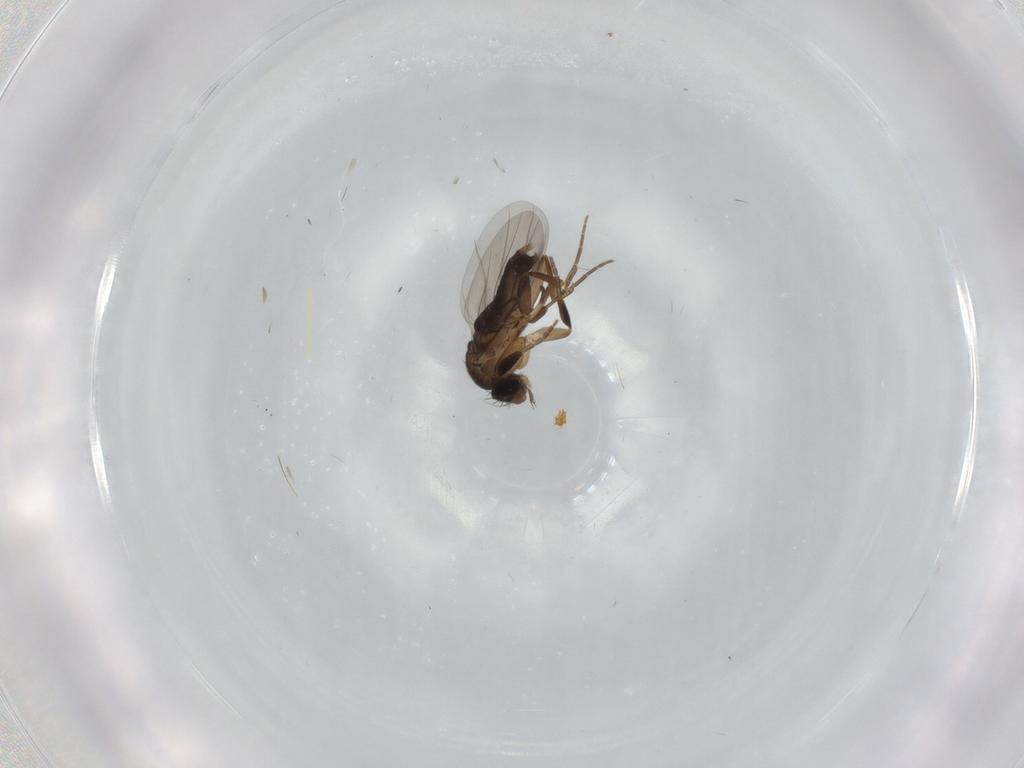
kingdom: Animalia
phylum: Arthropoda
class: Insecta
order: Diptera
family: Phoridae
